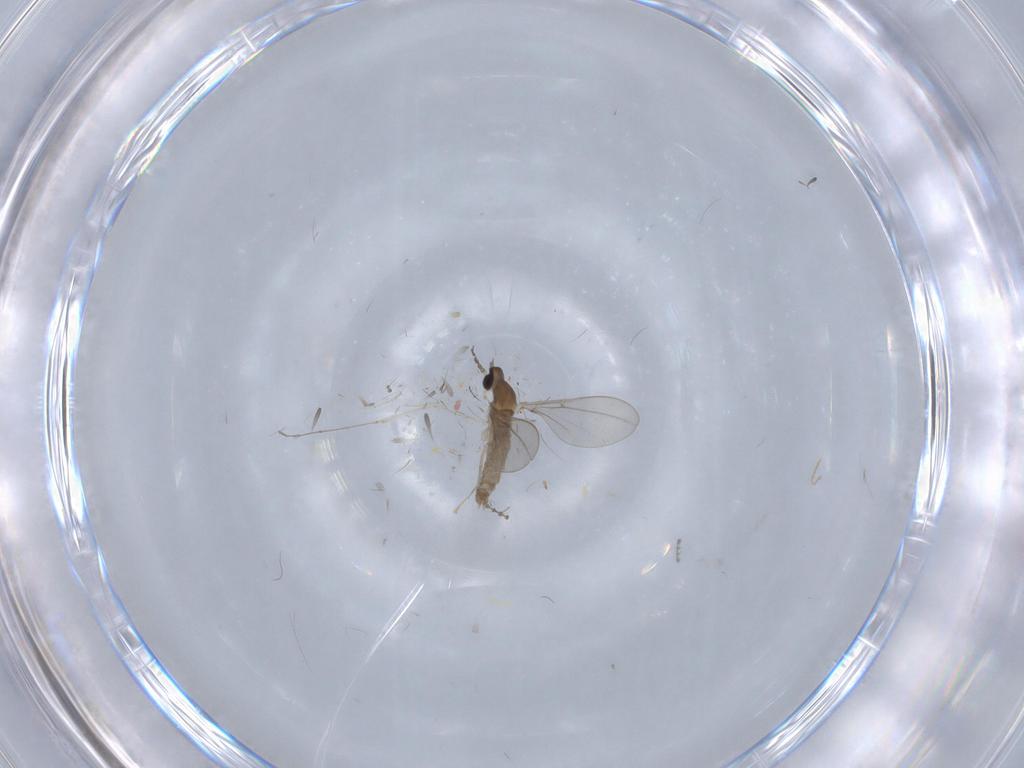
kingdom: Animalia
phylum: Arthropoda
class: Insecta
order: Diptera
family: Cecidomyiidae
